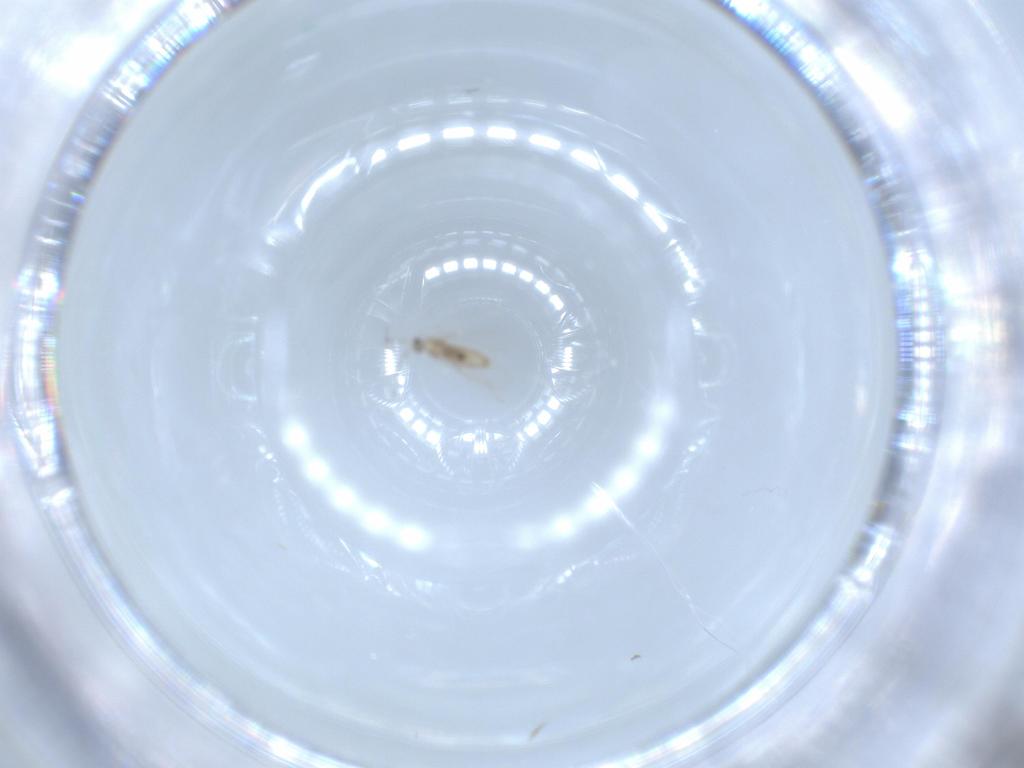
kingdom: Animalia
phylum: Arthropoda
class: Insecta
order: Diptera
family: Cecidomyiidae
